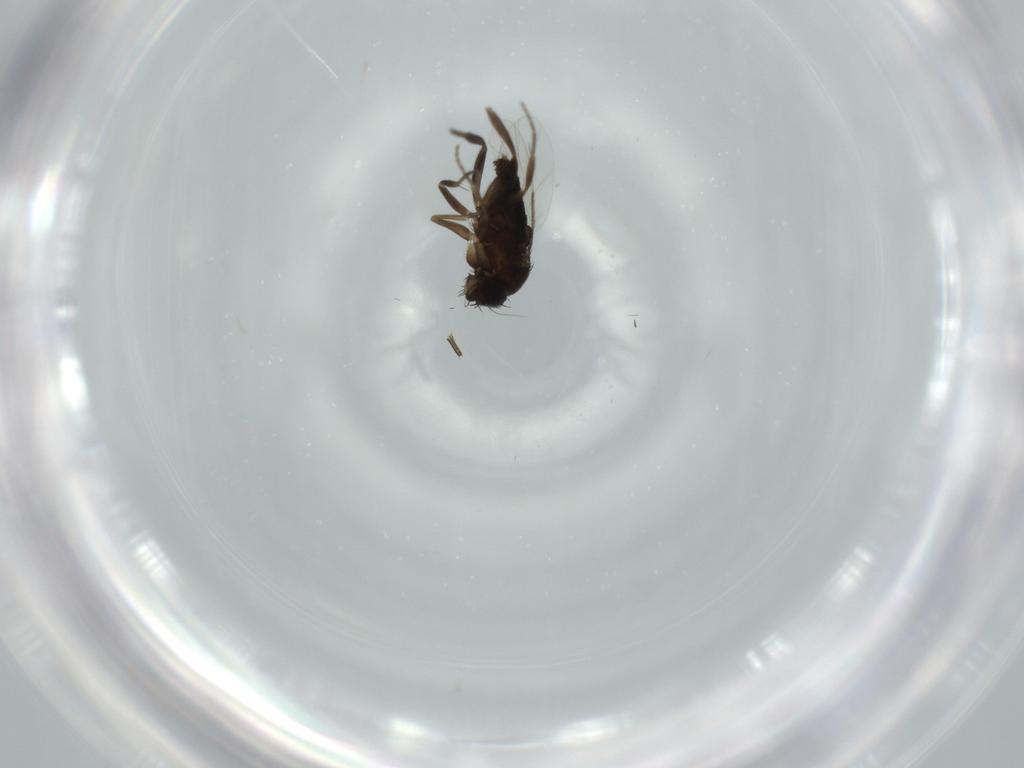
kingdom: Animalia
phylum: Arthropoda
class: Insecta
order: Diptera
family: Phoridae
